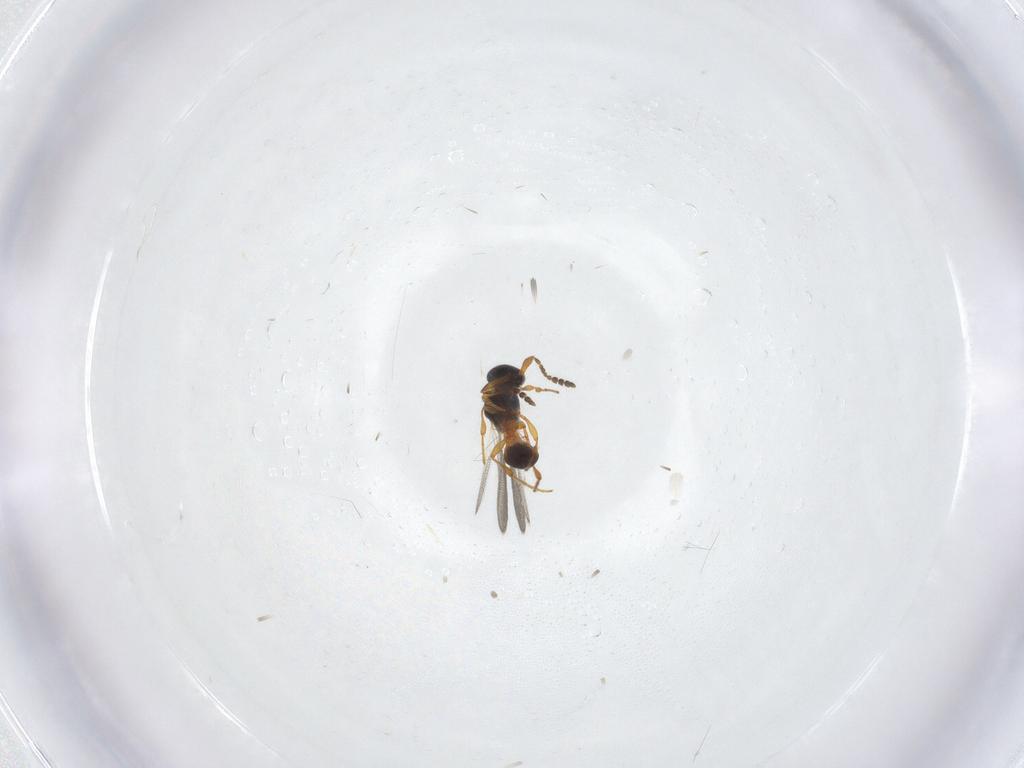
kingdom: Animalia
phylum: Arthropoda
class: Insecta
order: Hymenoptera
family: Platygastridae
